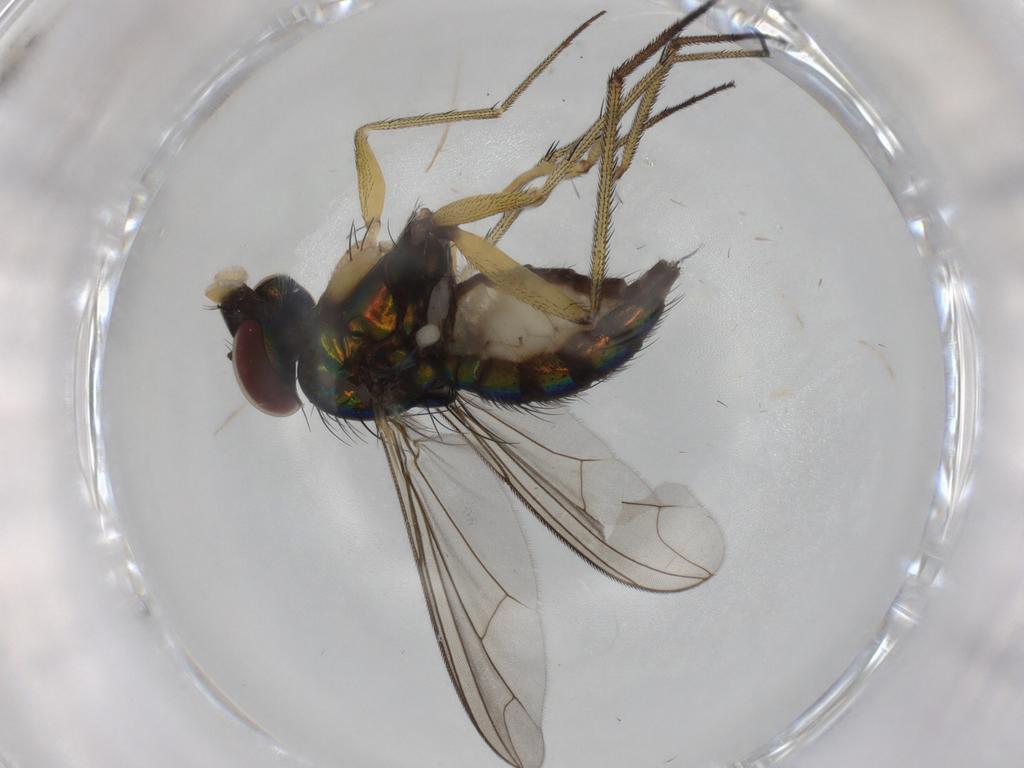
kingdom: Animalia
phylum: Arthropoda
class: Insecta
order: Diptera
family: Dolichopodidae
